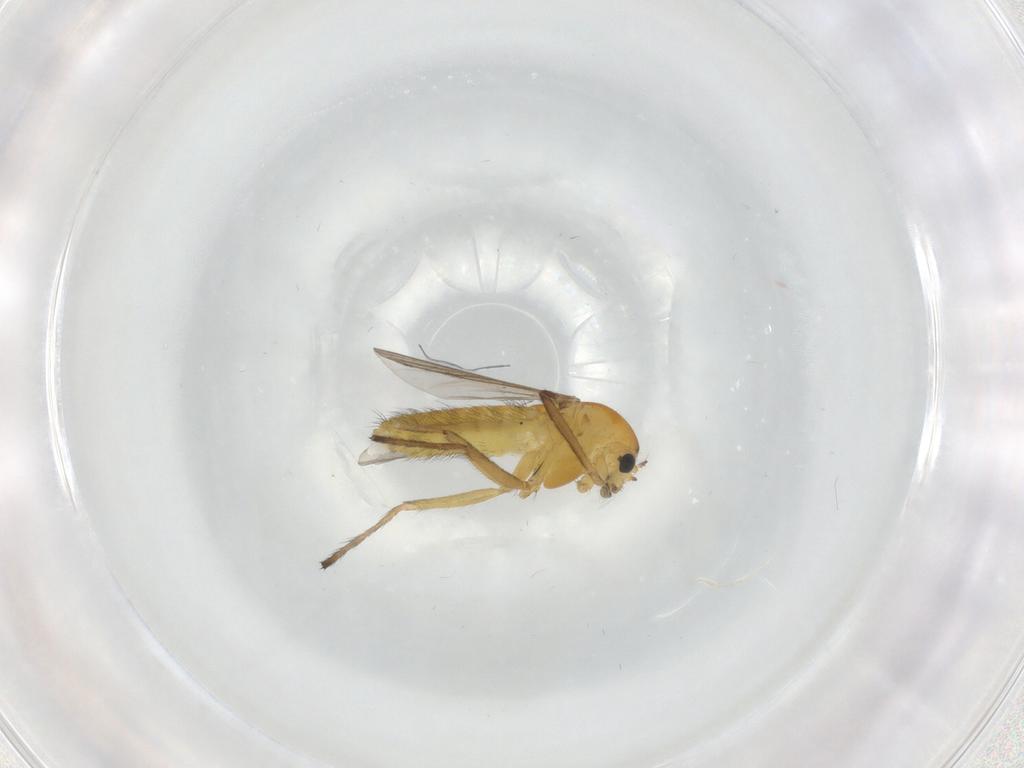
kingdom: Animalia
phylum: Arthropoda
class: Insecta
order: Diptera
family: Chironomidae
